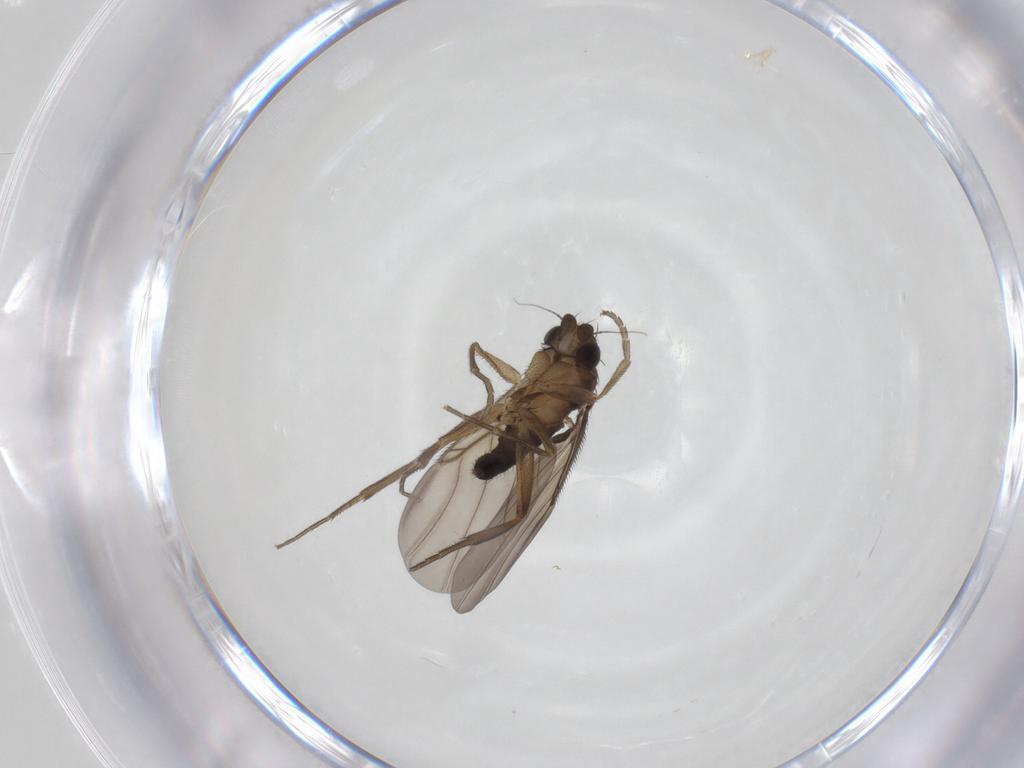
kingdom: Animalia
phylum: Arthropoda
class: Insecta
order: Diptera
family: Phoridae
